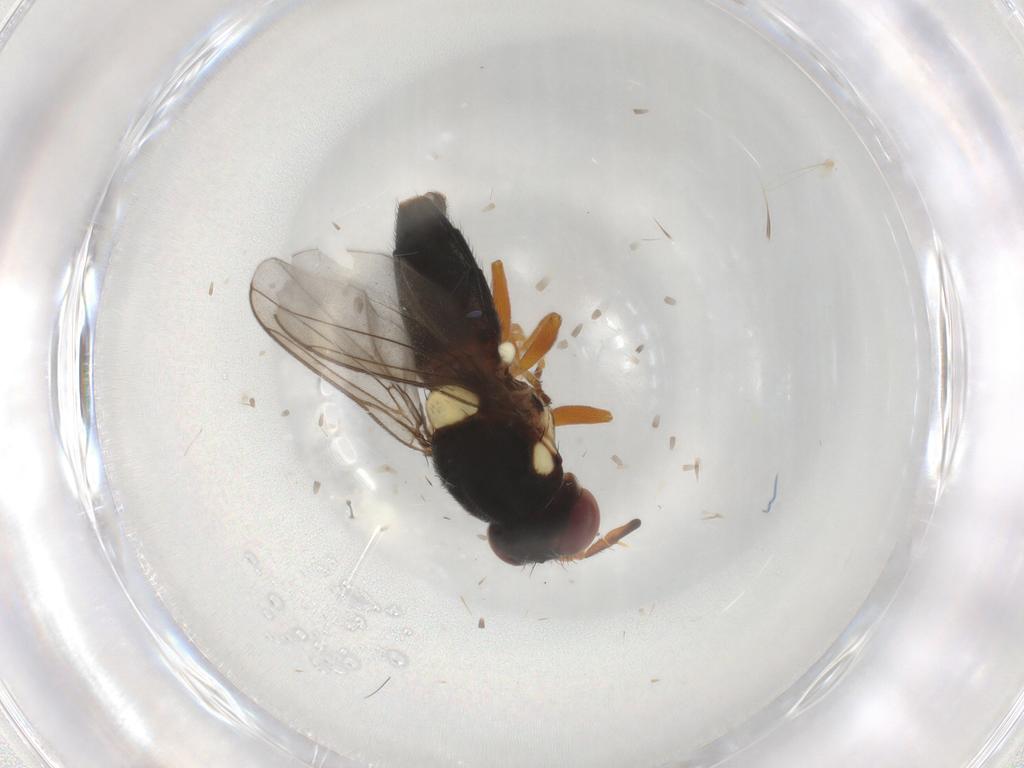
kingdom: Animalia
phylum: Arthropoda
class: Insecta
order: Diptera
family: Chloropidae
